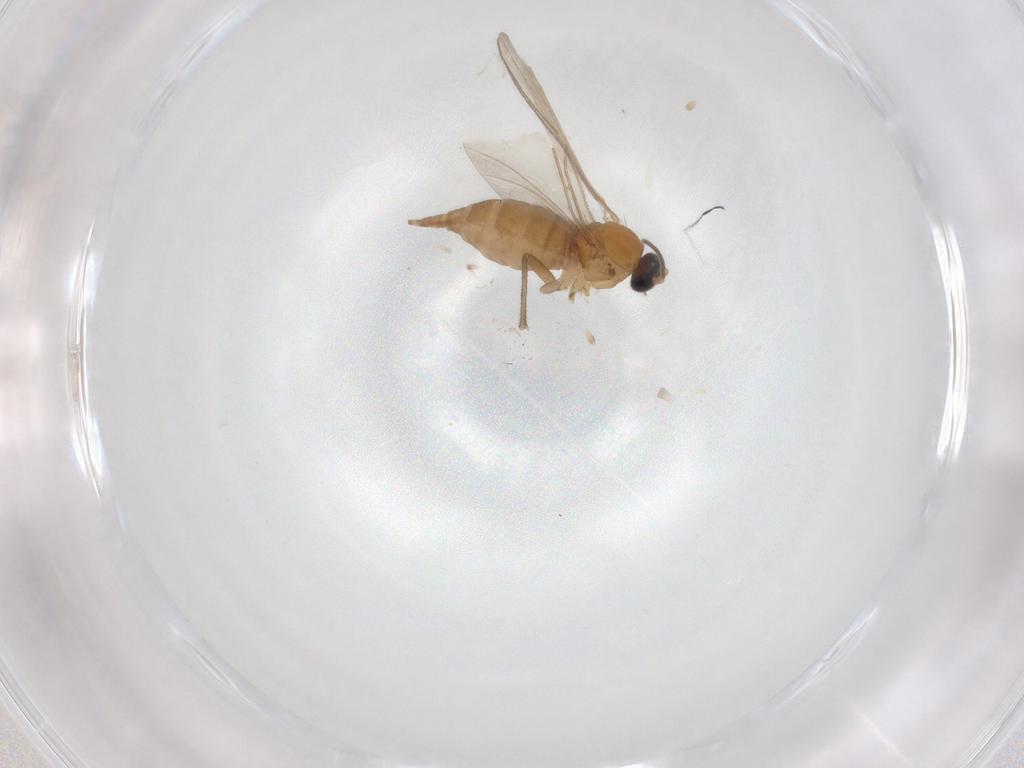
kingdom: Animalia
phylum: Arthropoda
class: Insecta
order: Diptera
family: Sciaridae
